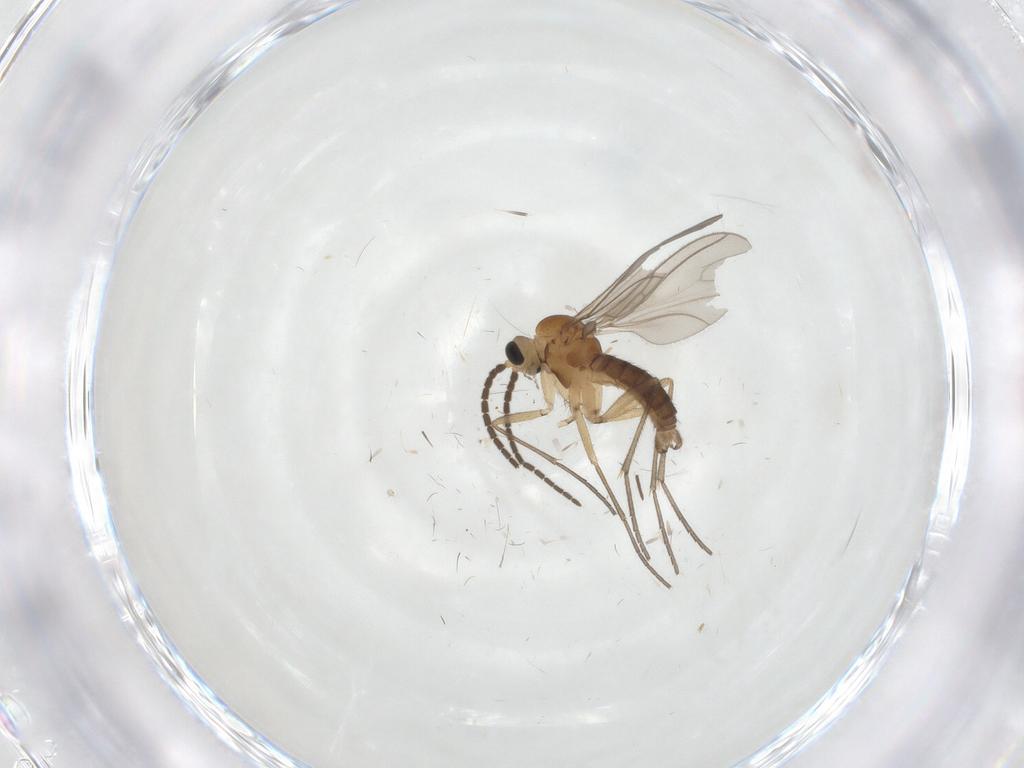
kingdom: Animalia
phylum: Arthropoda
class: Insecta
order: Diptera
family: Sciaridae
